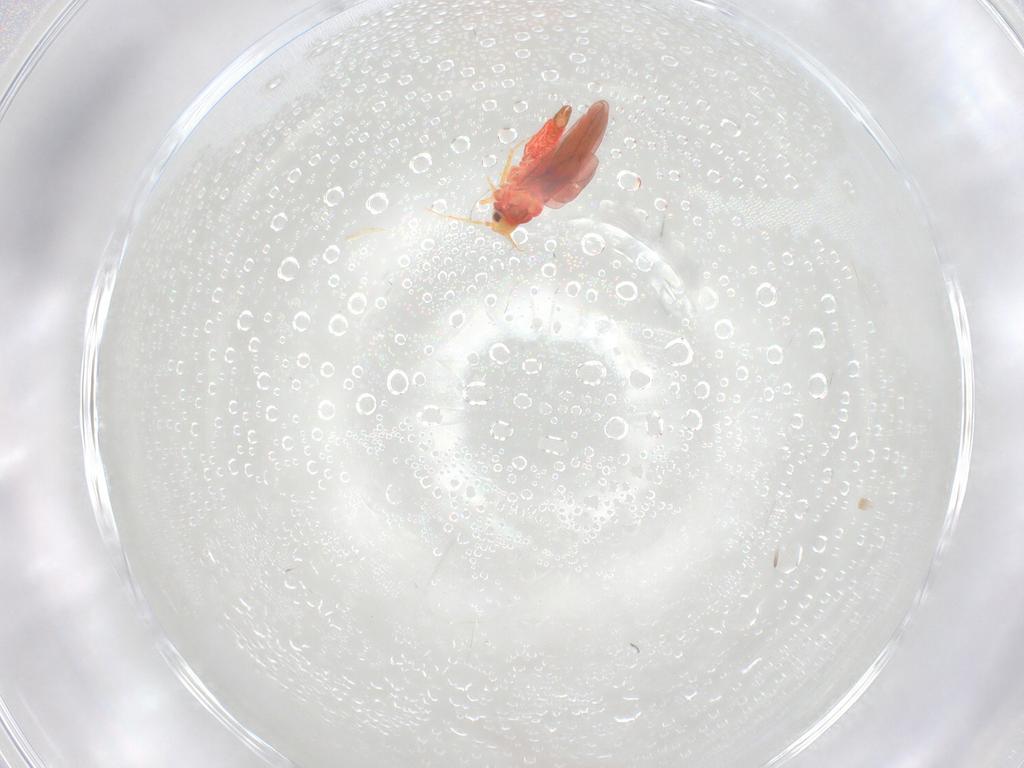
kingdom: Animalia
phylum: Arthropoda
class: Insecta
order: Hemiptera
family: Aleyrodidae
